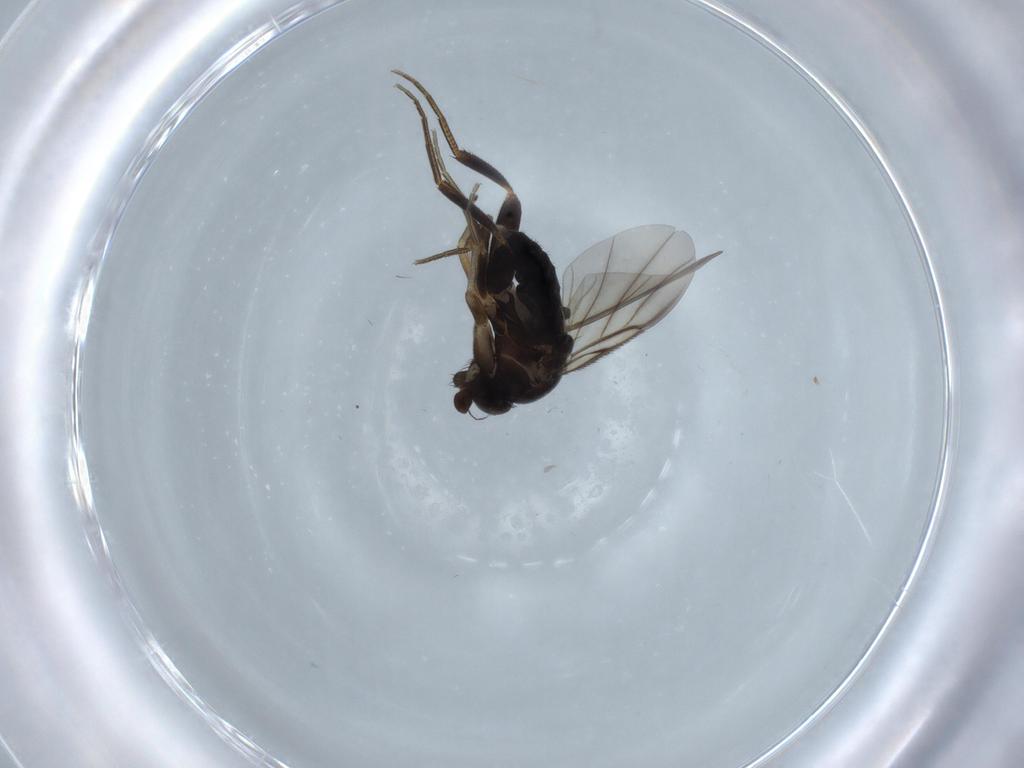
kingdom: Animalia
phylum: Arthropoda
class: Insecta
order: Diptera
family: Phoridae
